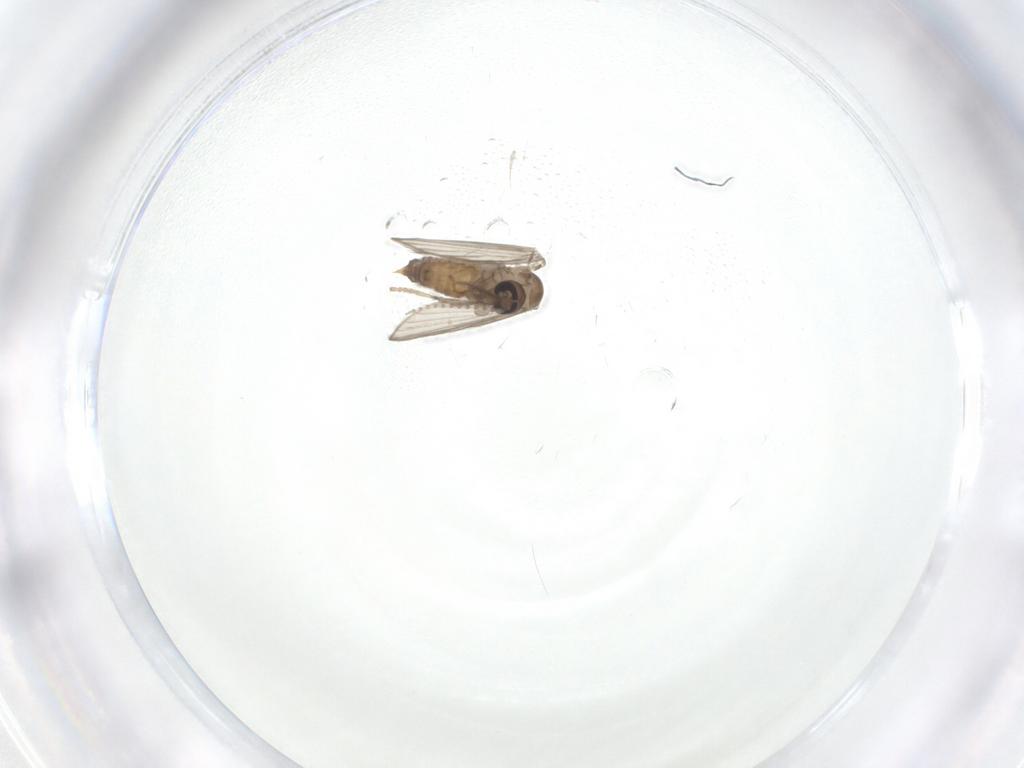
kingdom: Animalia
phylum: Arthropoda
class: Insecta
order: Diptera
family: Psychodidae
